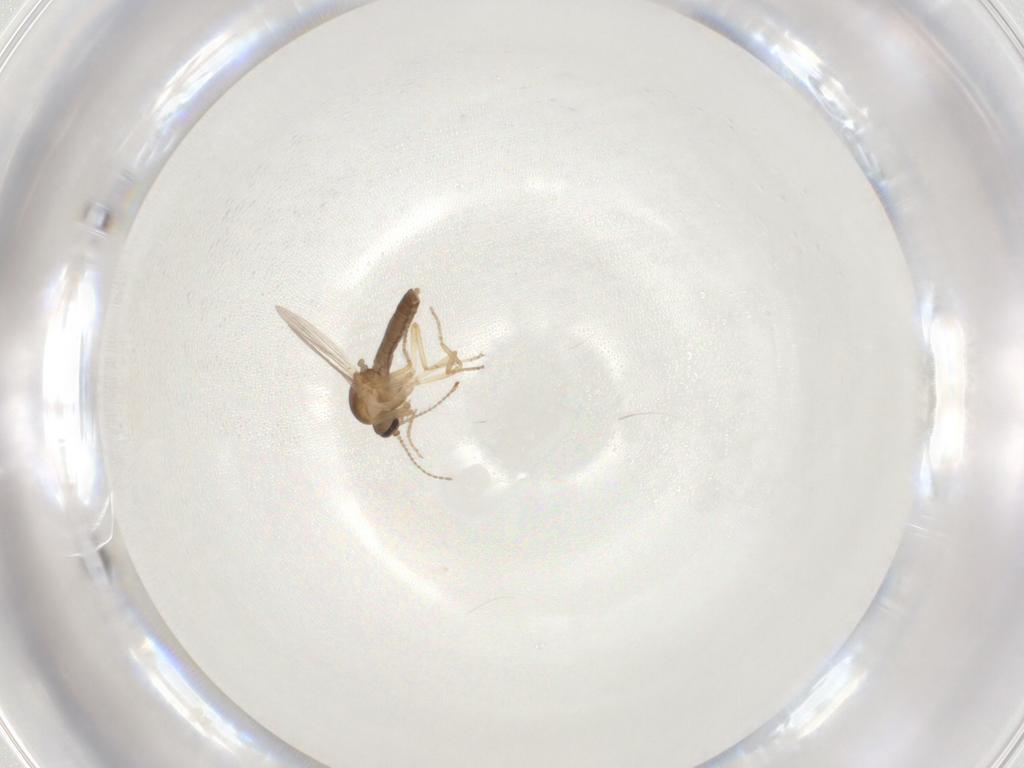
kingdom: Animalia
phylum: Arthropoda
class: Insecta
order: Diptera
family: Ceratopogonidae
